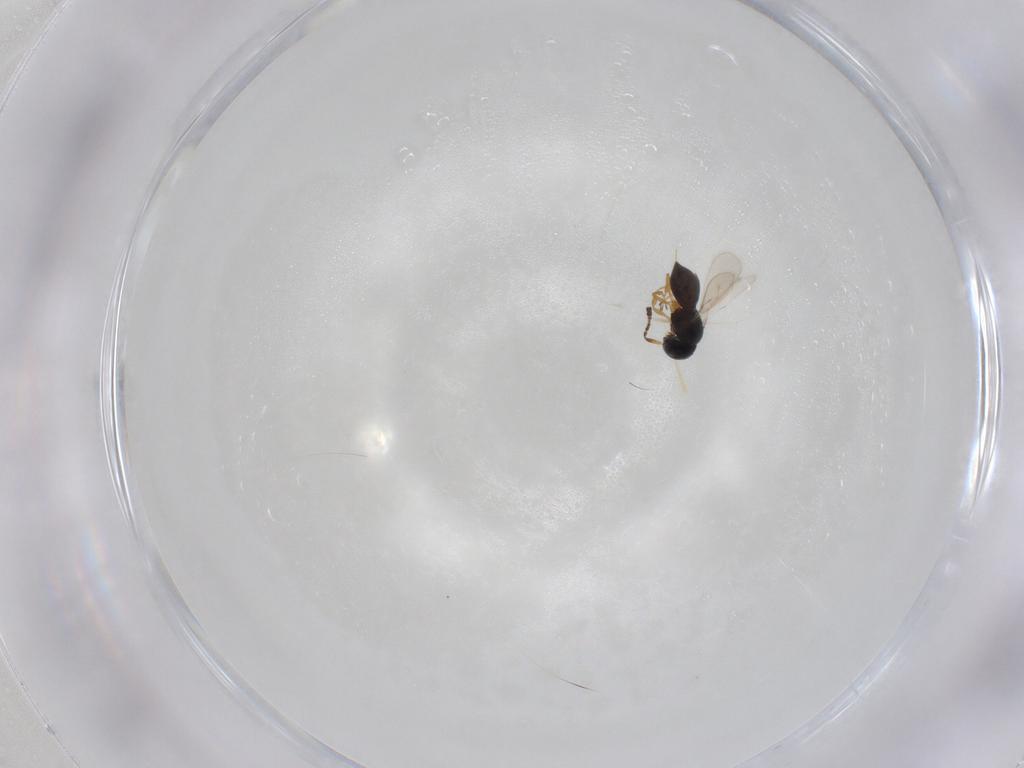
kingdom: Animalia
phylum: Arthropoda
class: Insecta
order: Hymenoptera
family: Scelionidae
